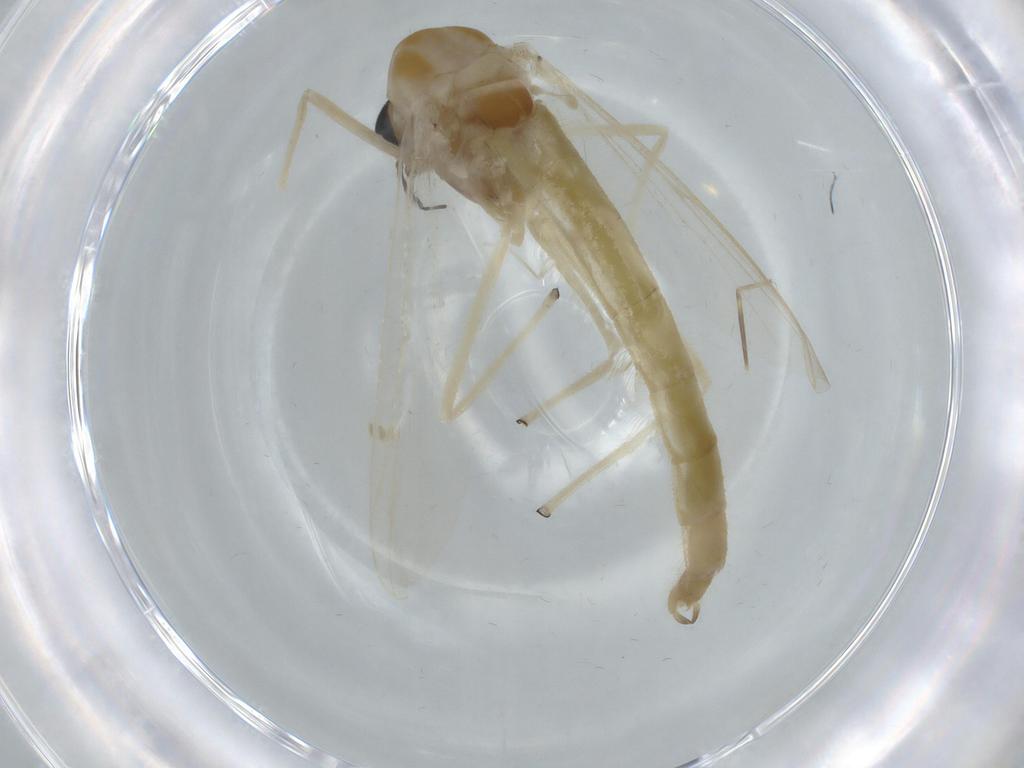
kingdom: Animalia
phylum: Arthropoda
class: Insecta
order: Diptera
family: Chironomidae
